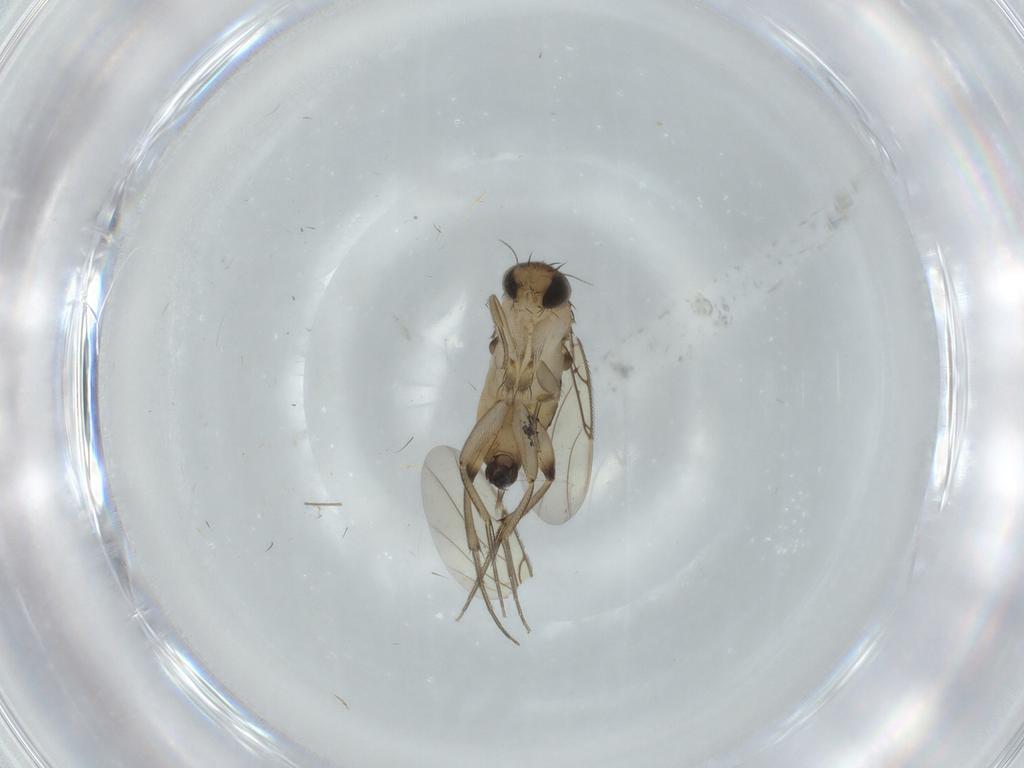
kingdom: Animalia
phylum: Arthropoda
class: Insecta
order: Diptera
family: Phoridae
